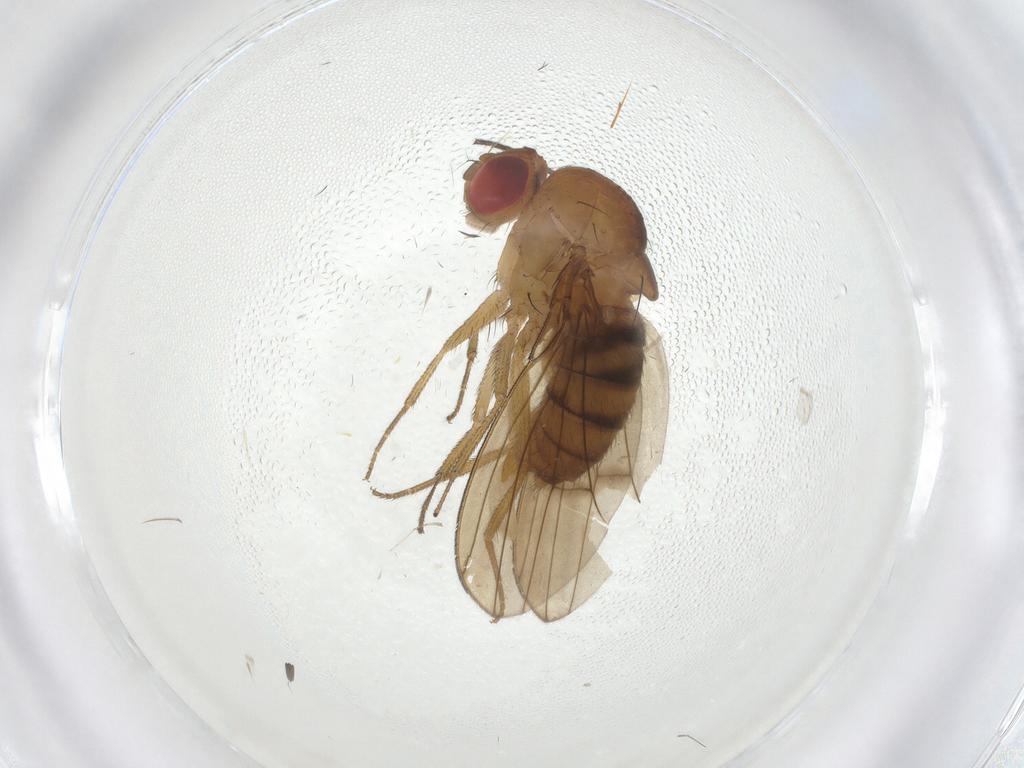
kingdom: Animalia
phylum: Arthropoda
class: Insecta
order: Diptera
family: Drosophilidae
